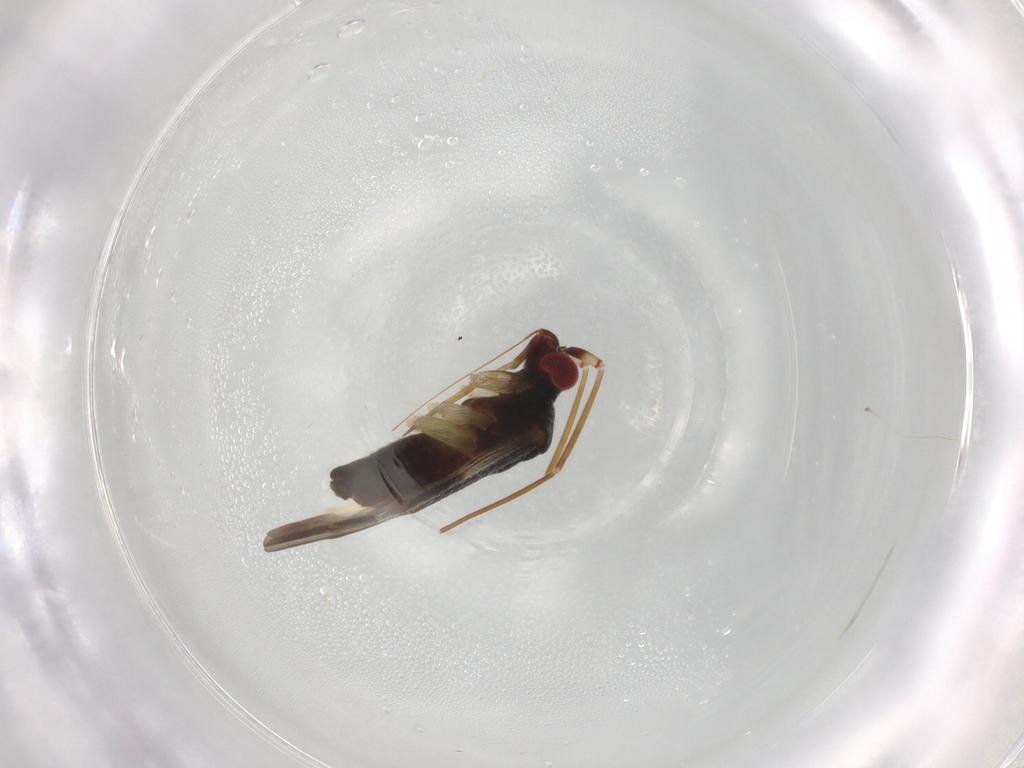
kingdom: Animalia
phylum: Arthropoda
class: Insecta
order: Hemiptera
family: Miridae
